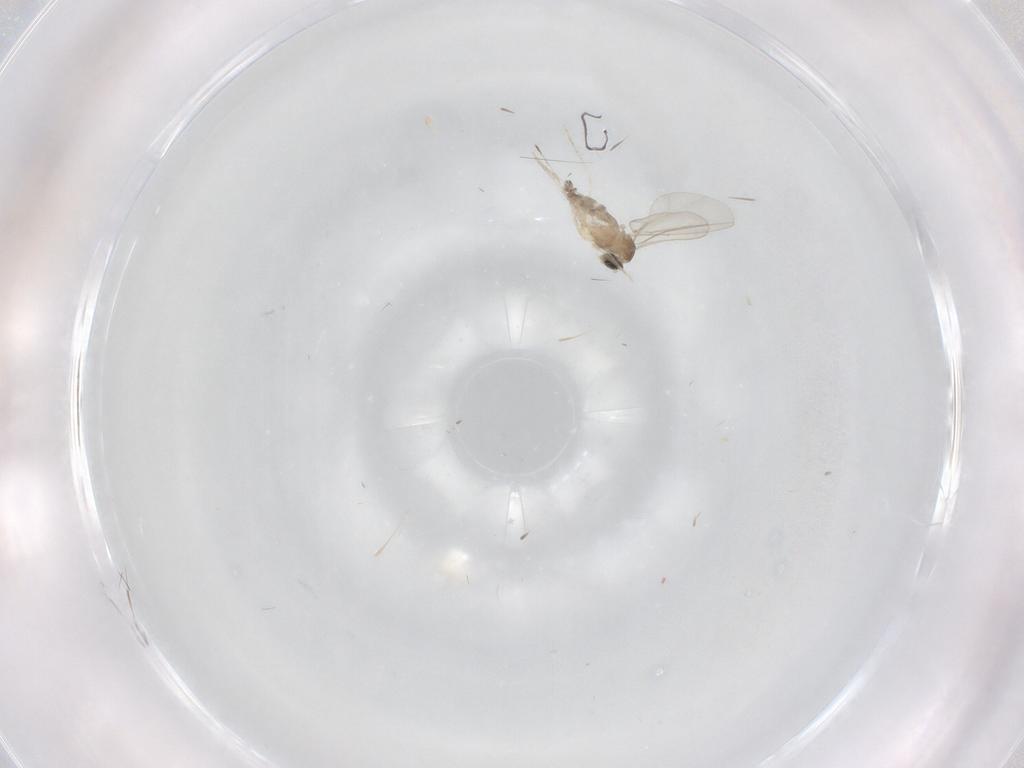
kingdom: Animalia
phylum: Arthropoda
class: Insecta
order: Diptera
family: Cecidomyiidae
